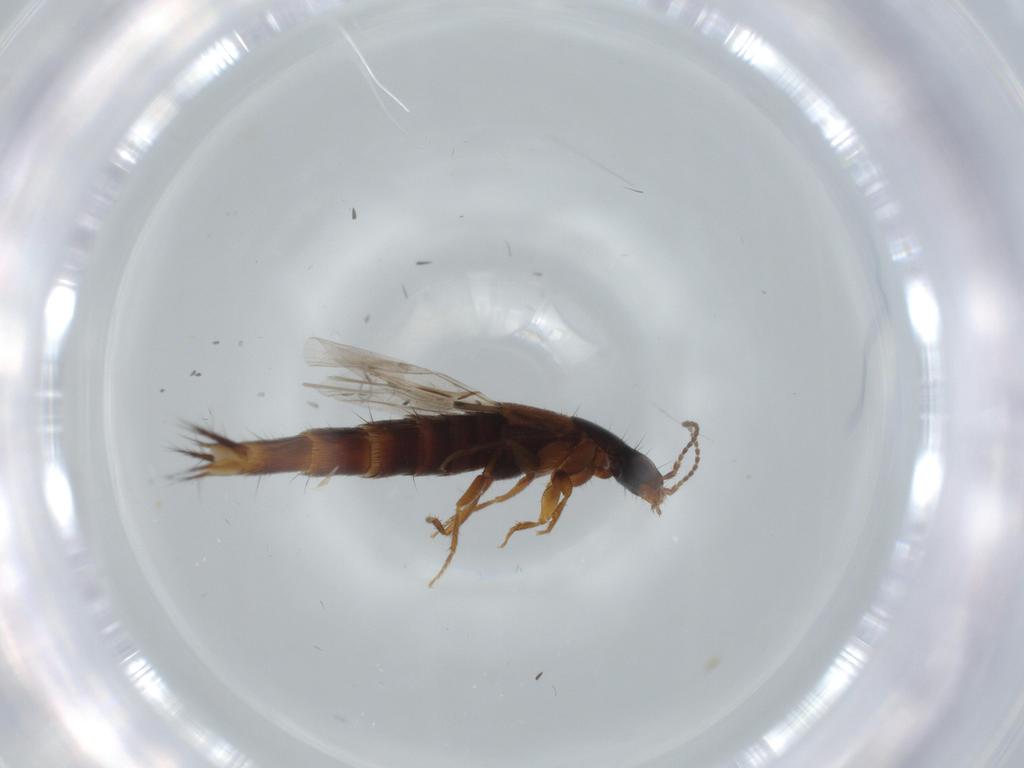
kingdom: Animalia
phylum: Arthropoda
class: Insecta
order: Coleoptera
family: Staphylinidae
